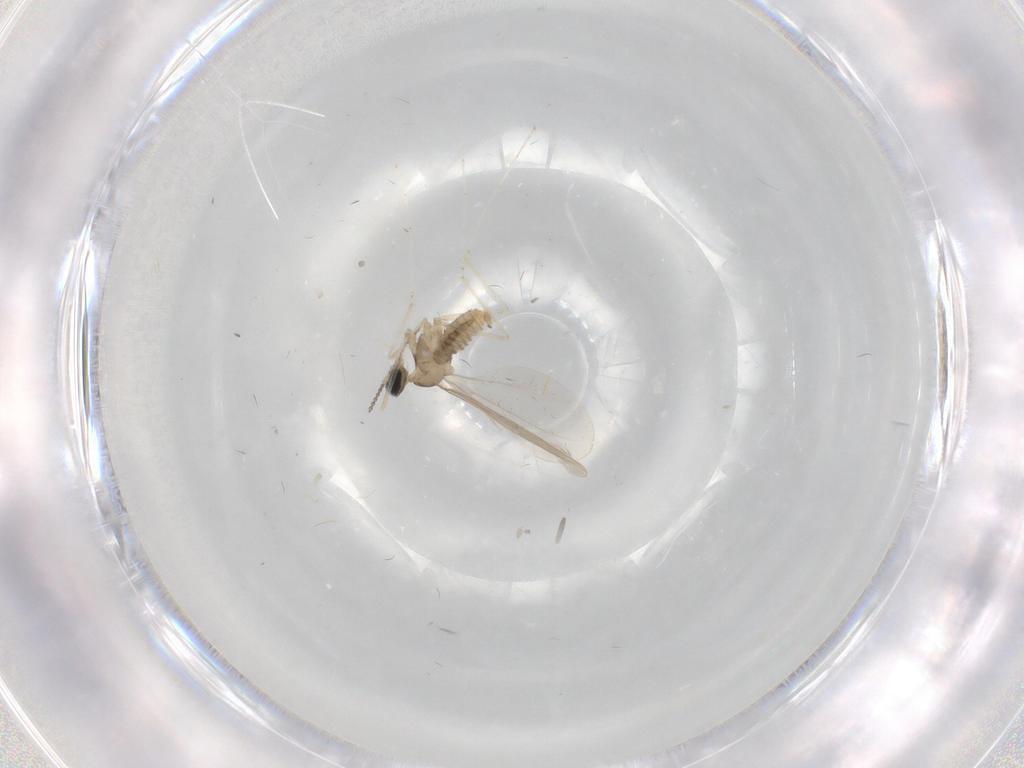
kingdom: Animalia
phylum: Arthropoda
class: Insecta
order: Diptera
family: Cecidomyiidae
